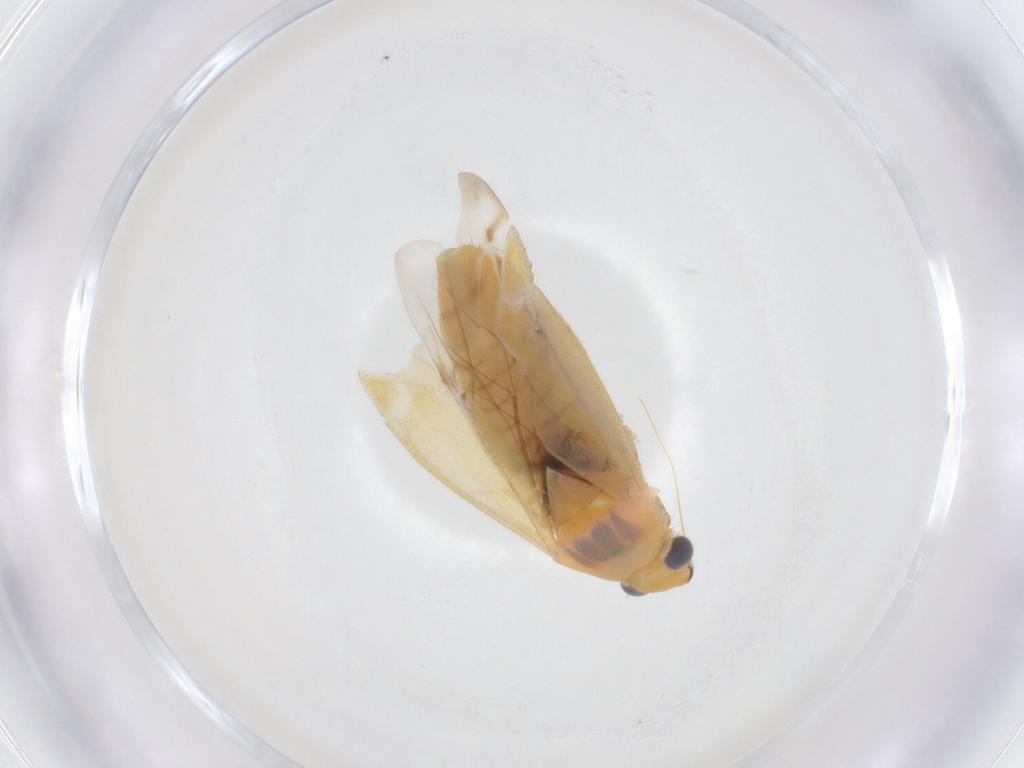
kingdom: Animalia
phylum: Arthropoda
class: Insecta
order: Hemiptera
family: Miridae
